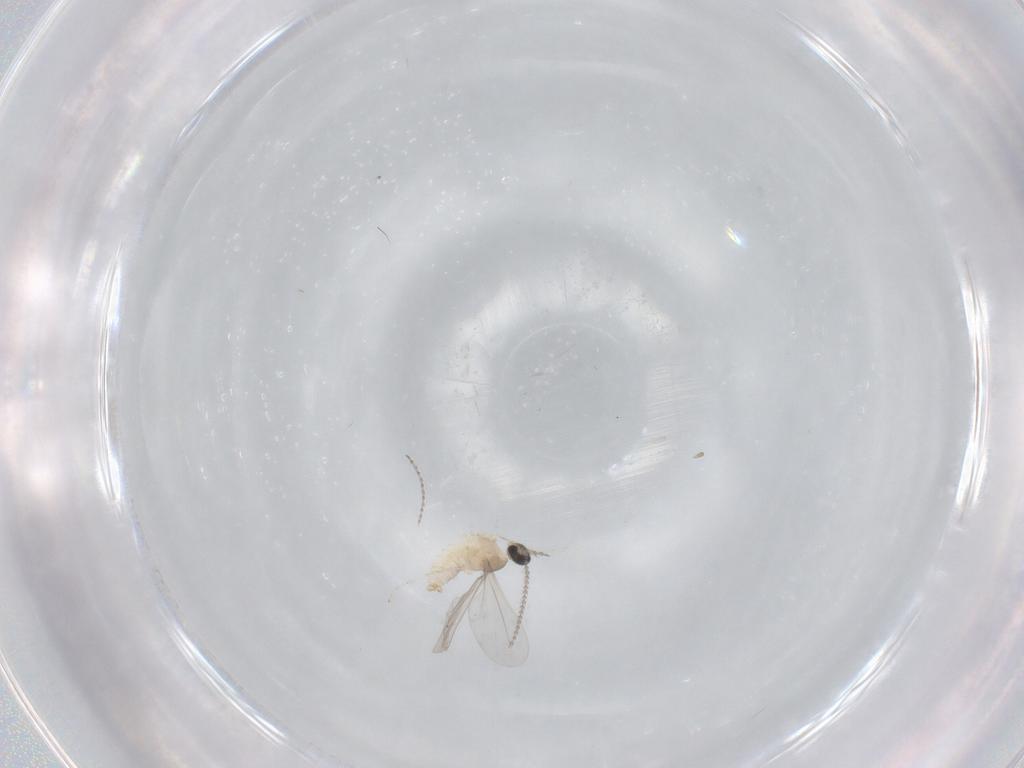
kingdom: Animalia
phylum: Arthropoda
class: Insecta
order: Diptera
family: Cecidomyiidae
